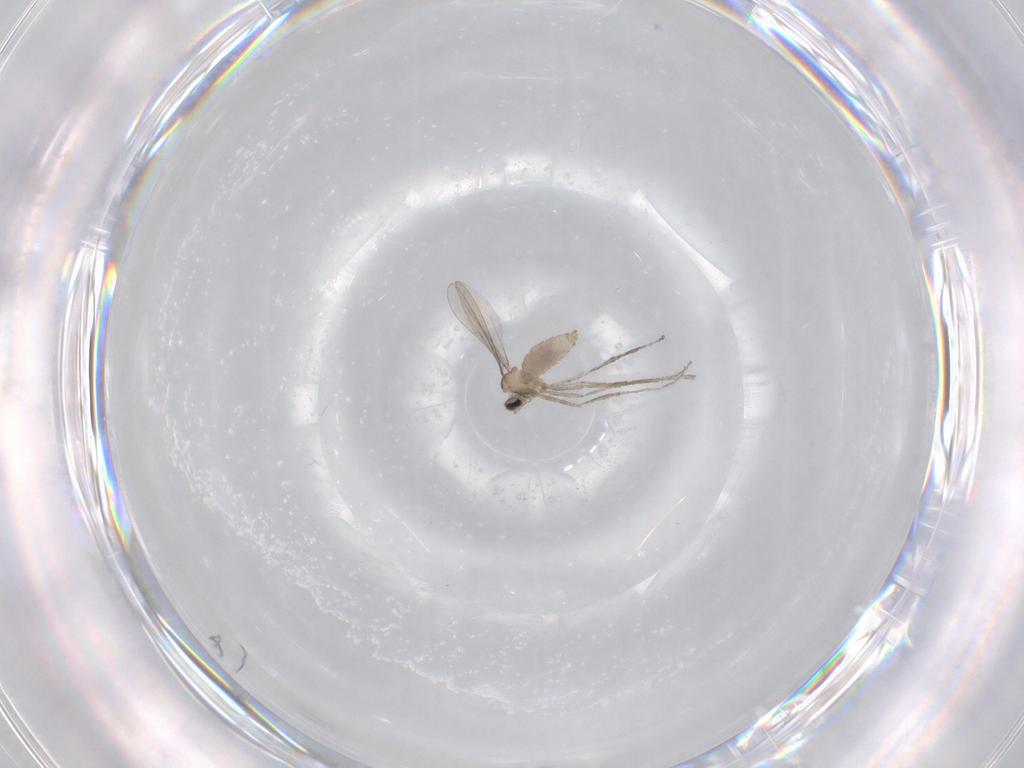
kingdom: Animalia
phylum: Arthropoda
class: Insecta
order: Diptera
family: Cecidomyiidae
